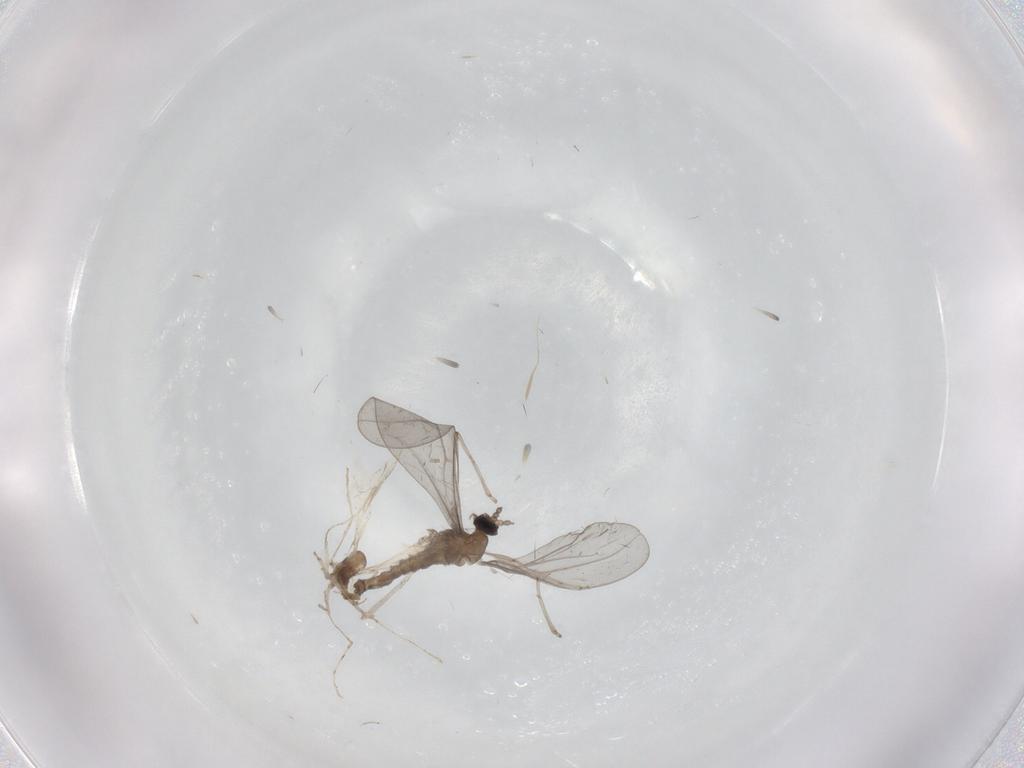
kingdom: Animalia
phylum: Arthropoda
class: Insecta
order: Diptera
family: Cecidomyiidae
